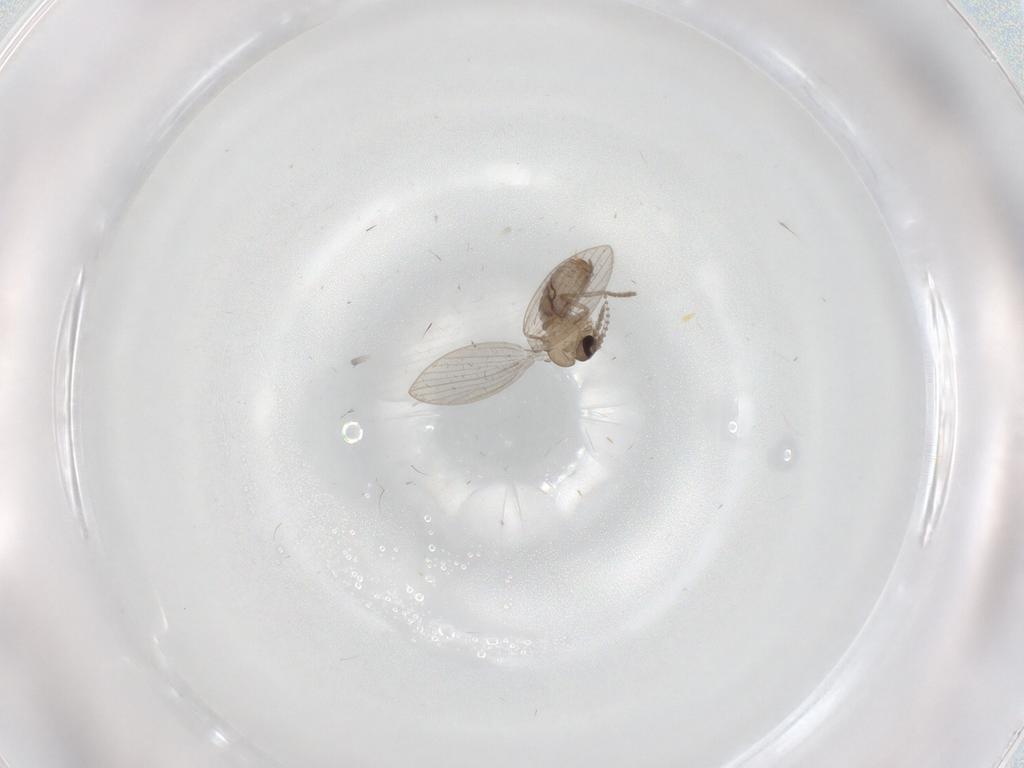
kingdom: Animalia
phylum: Arthropoda
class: Insecta
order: Diptera
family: Psychodidae
